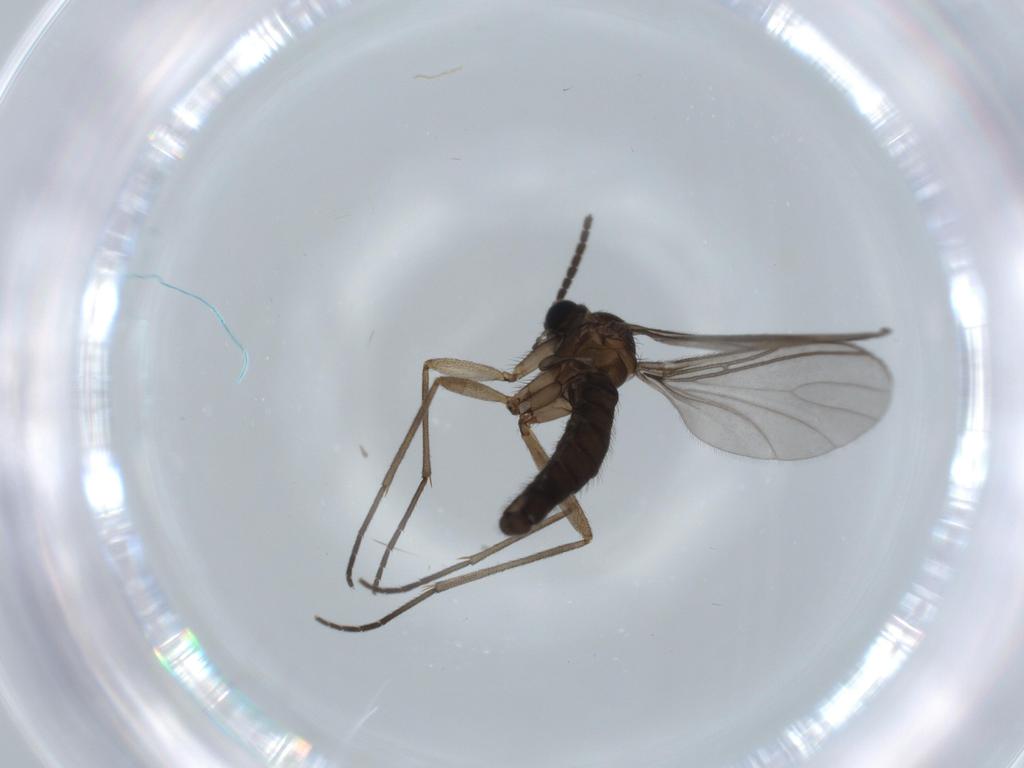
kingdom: Animalia
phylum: Arthropoda
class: Insecta
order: Diptera
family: Sciaridae
